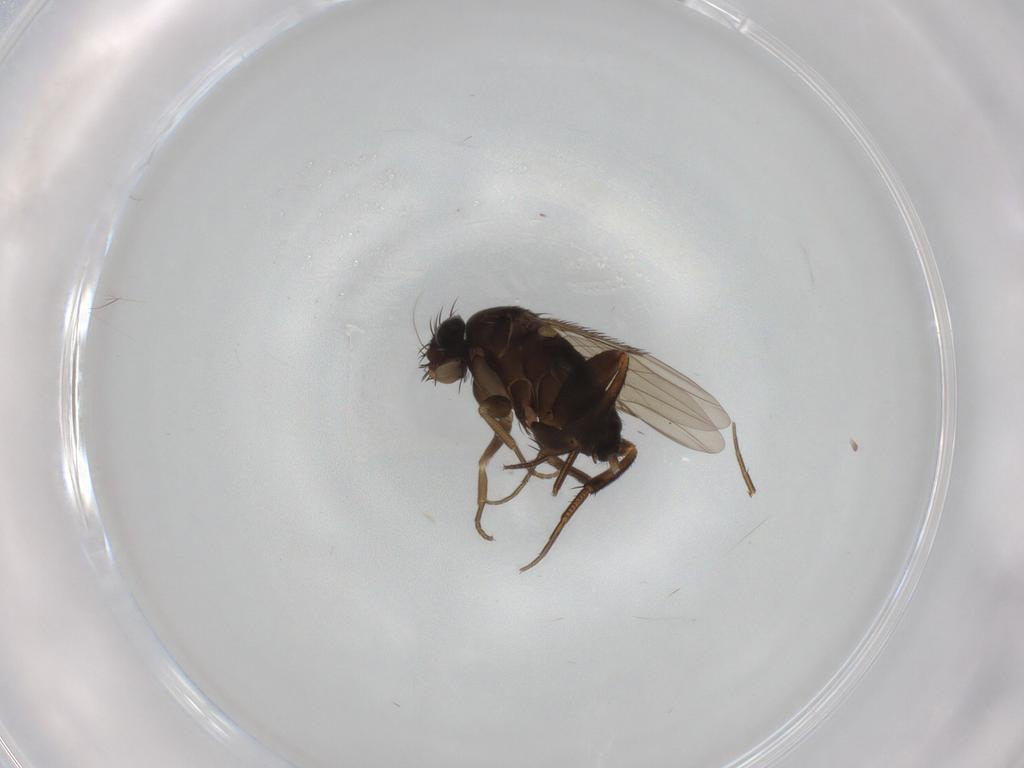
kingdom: Animalia
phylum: Arthropoda
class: Insecta
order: Diptera
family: Phoridae
